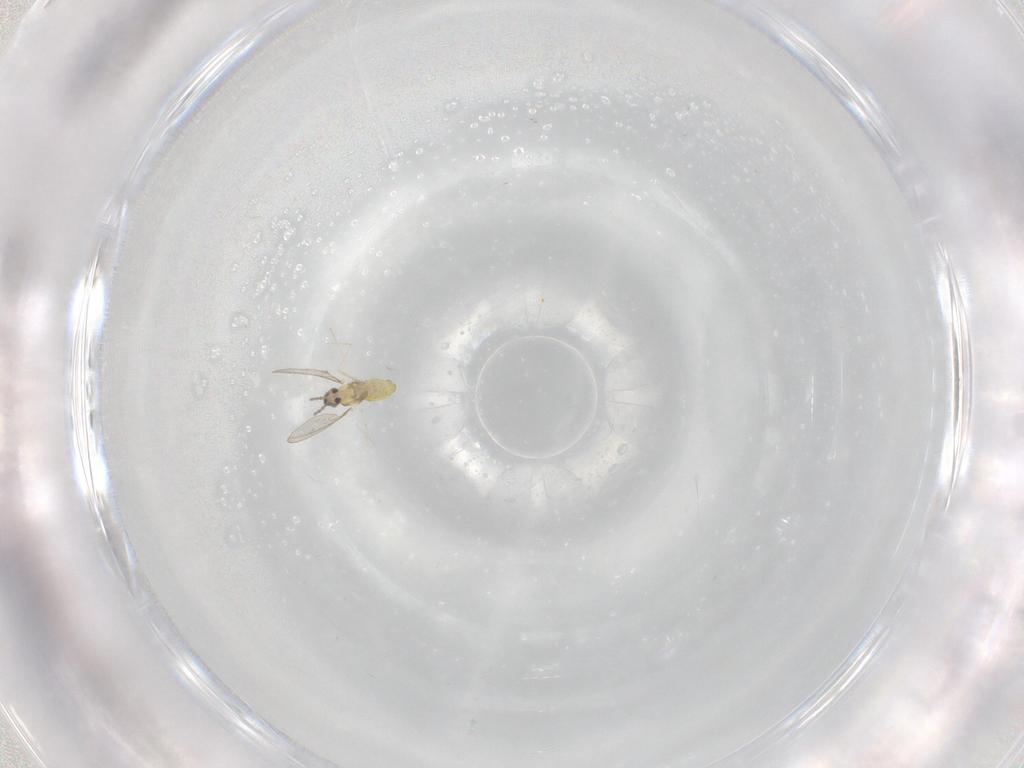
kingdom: Animalia
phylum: Arthropoda
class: Insecta
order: Diptera
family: Cecidomyiidae
